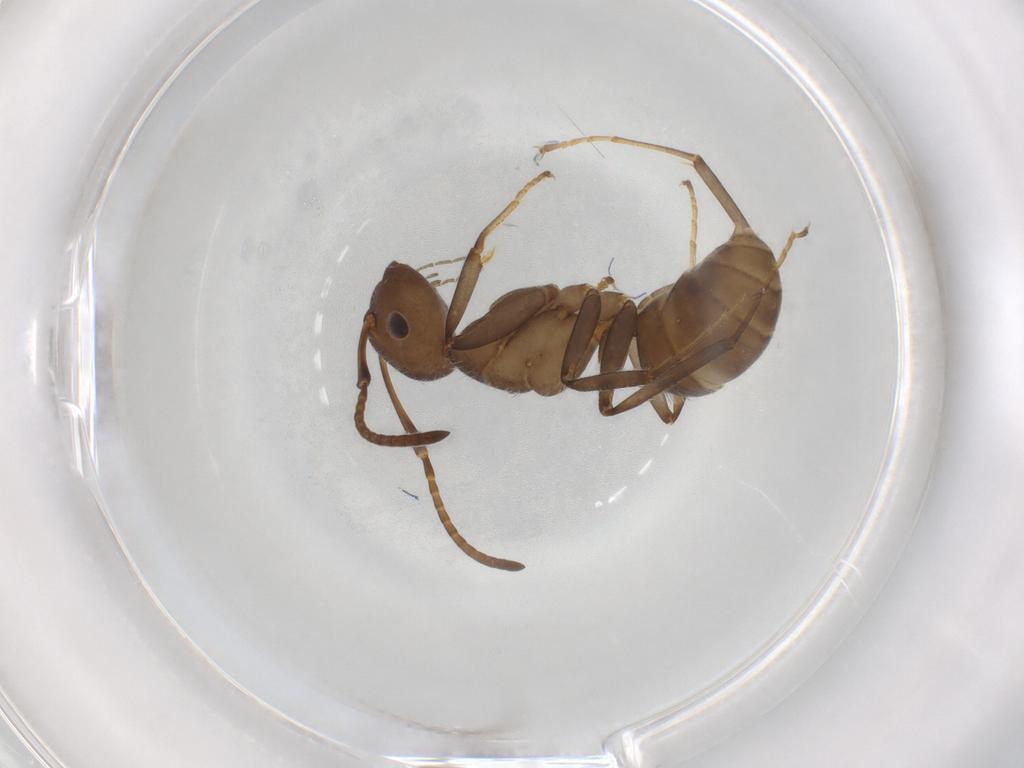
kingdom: Animalia
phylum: Arthropoda
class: Insecta
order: Hymenoptera
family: Formicidae
